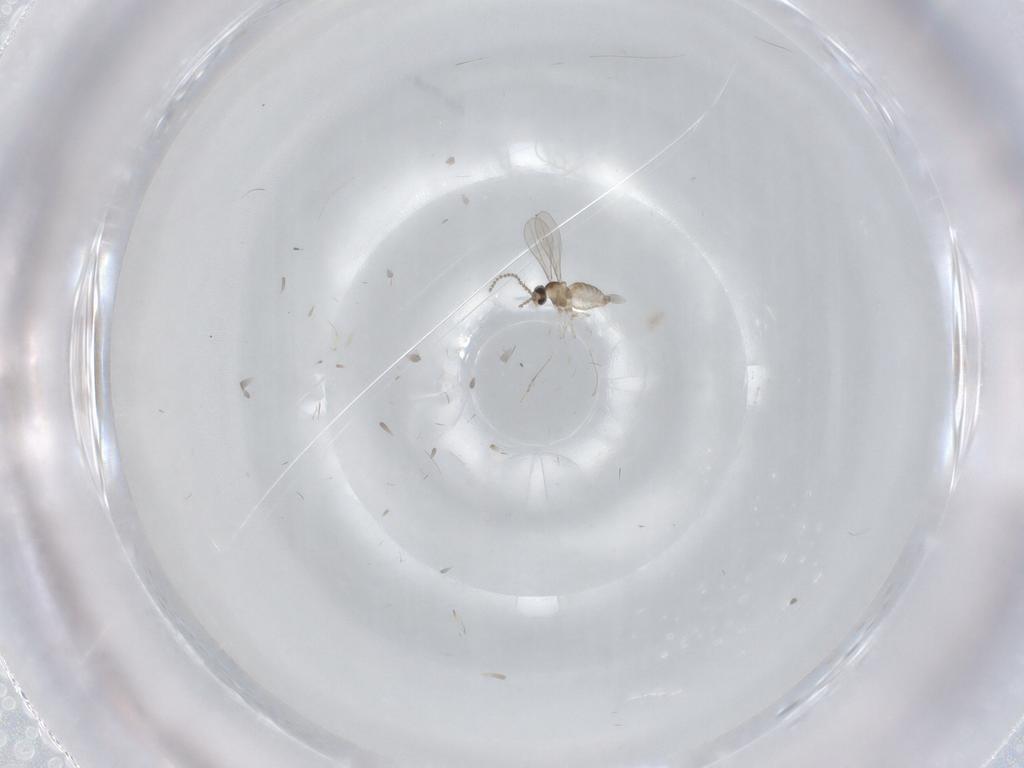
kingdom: Animalia
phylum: Arthropoda
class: Insecta
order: Diptera
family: Cecidomyiidae
